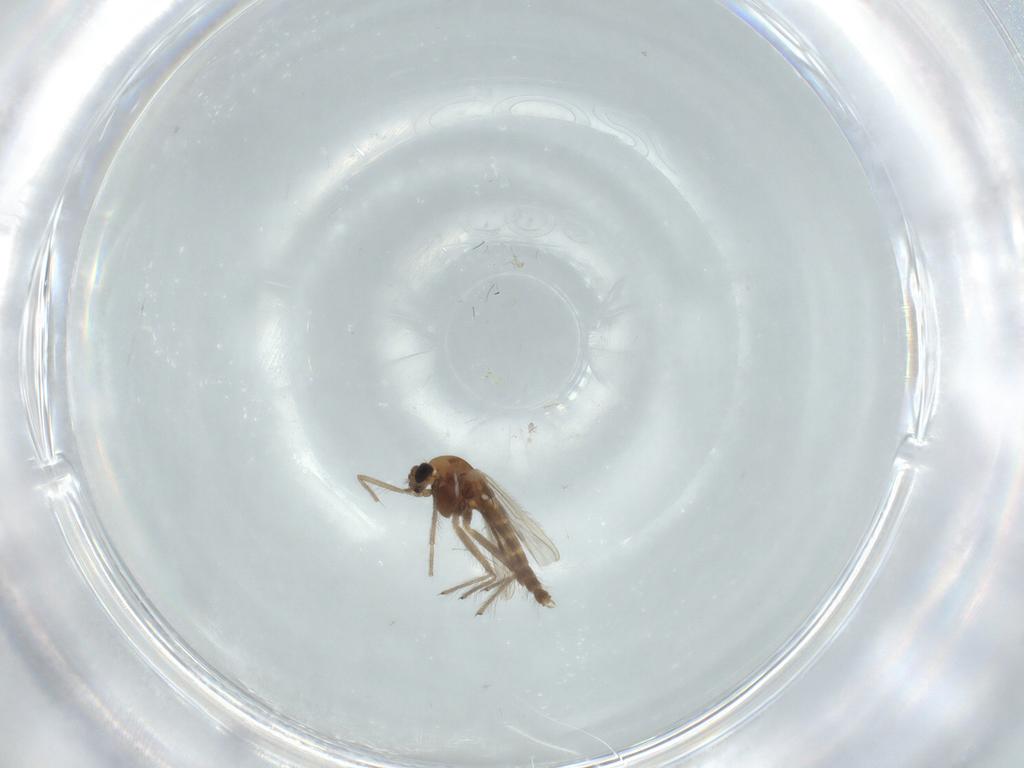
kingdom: Animalia
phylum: Arthropoda
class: Insecta
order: Diptera
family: Chironomidae
